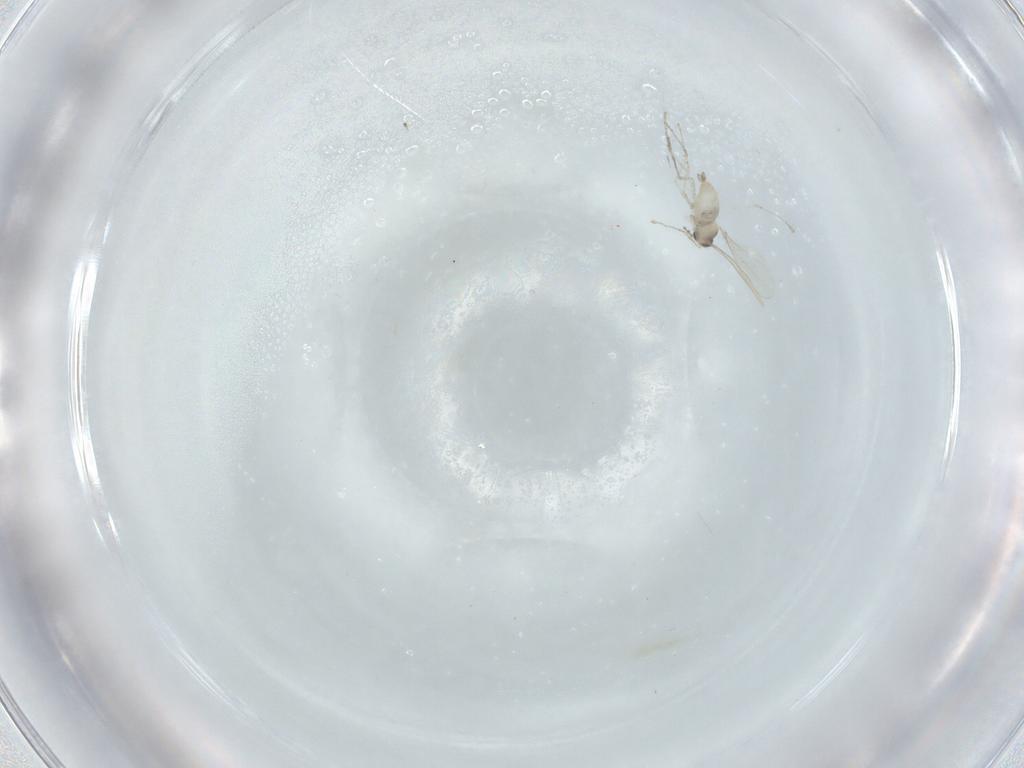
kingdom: Animalia
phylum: Arthropoda
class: Insecta
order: Diptera
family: Cecidomyiidae
